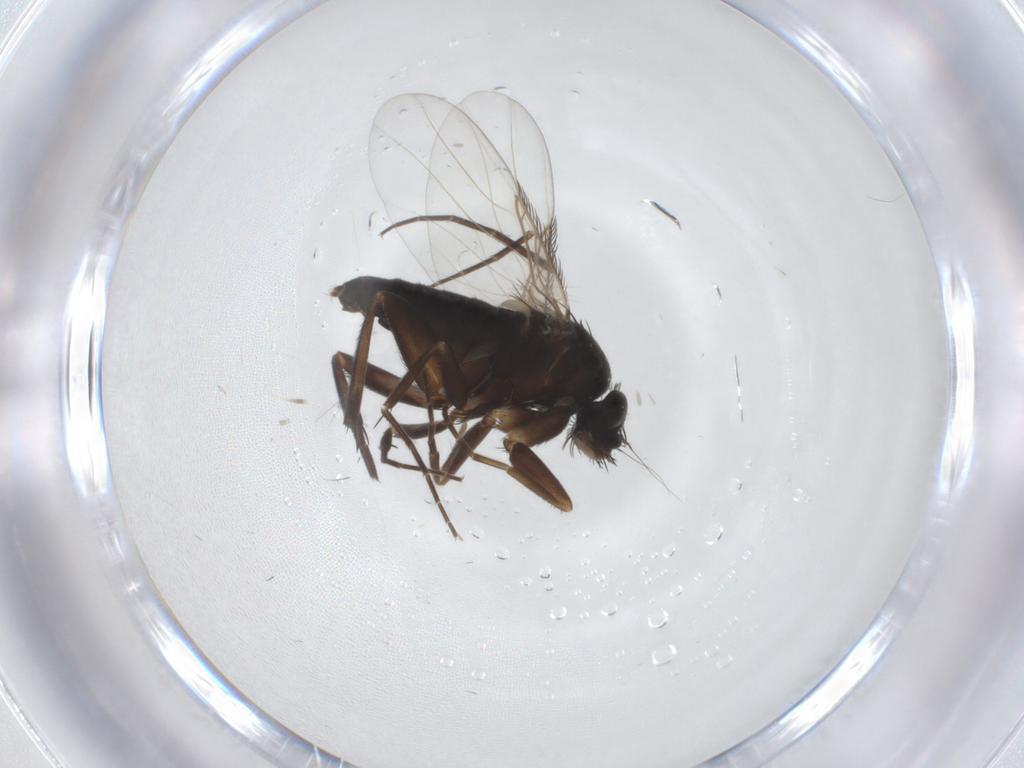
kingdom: Animalia
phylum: Arthropoda
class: Insecta
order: Diptera
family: Phoridae
